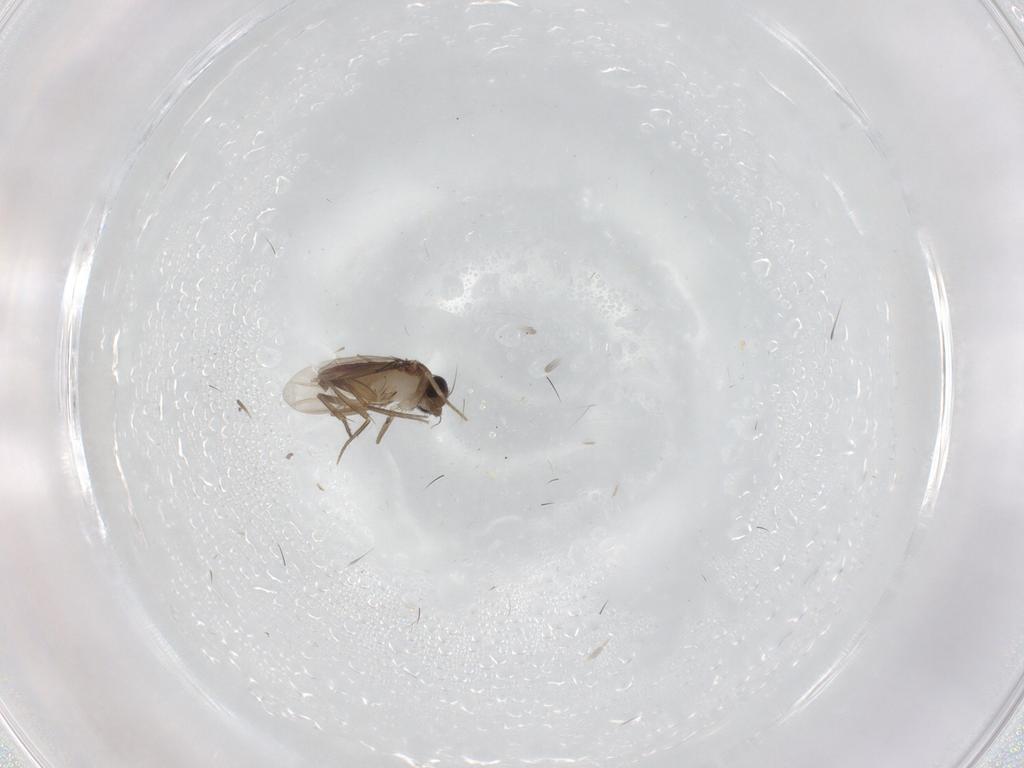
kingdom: Animalia
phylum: Arthropoda
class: Insecta
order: Diptera
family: Phoridae
